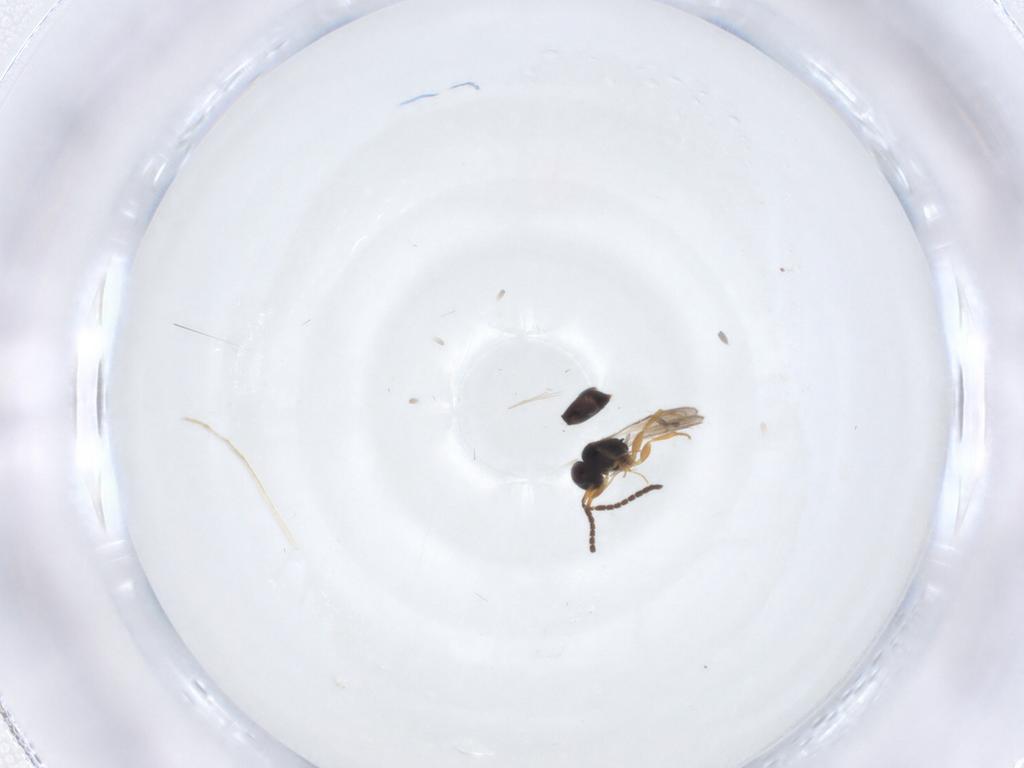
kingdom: Animalia
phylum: Arthropoda
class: Insecta
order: Hymenoptera
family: Ceraphronidae
